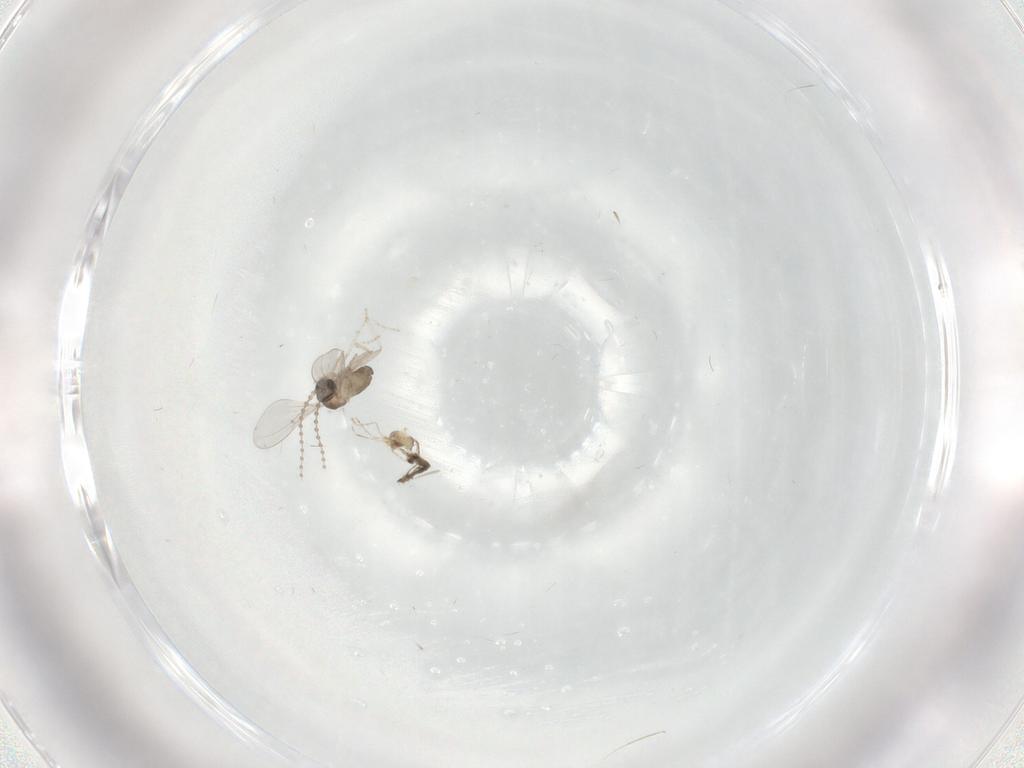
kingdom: Animalia
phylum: Arthropoda
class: Insecta
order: Diptera
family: Cecidomyiidae
